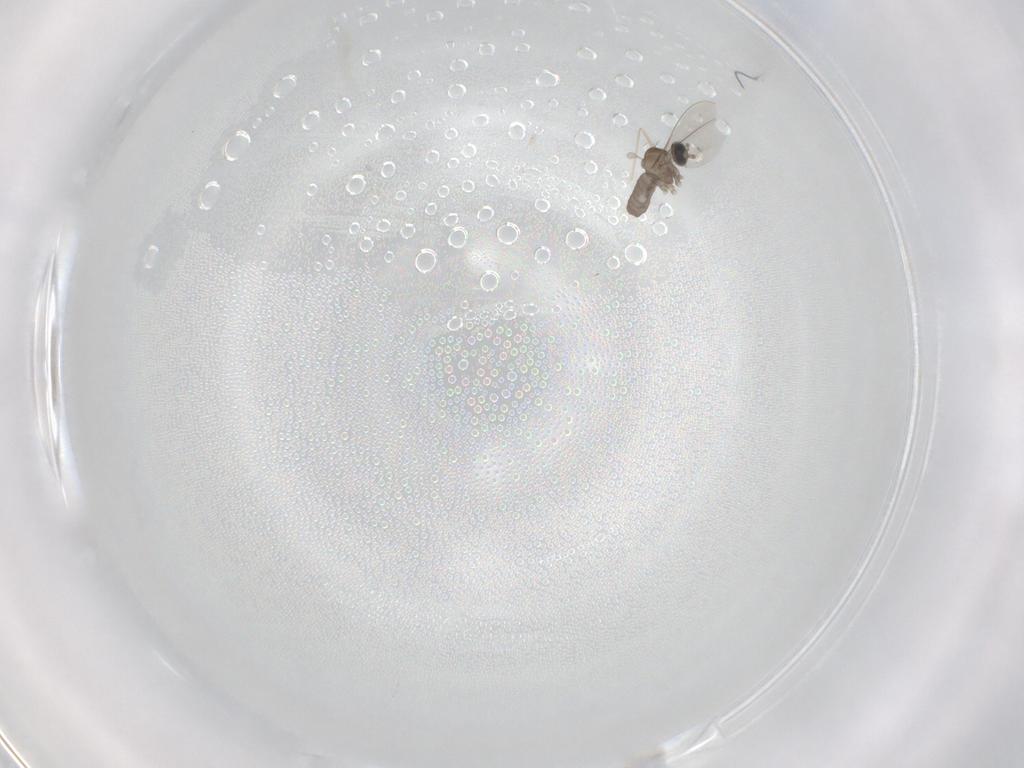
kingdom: Animalia
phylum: Arthropoda
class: Insecta
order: Diptera
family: Cecidomyiidae
